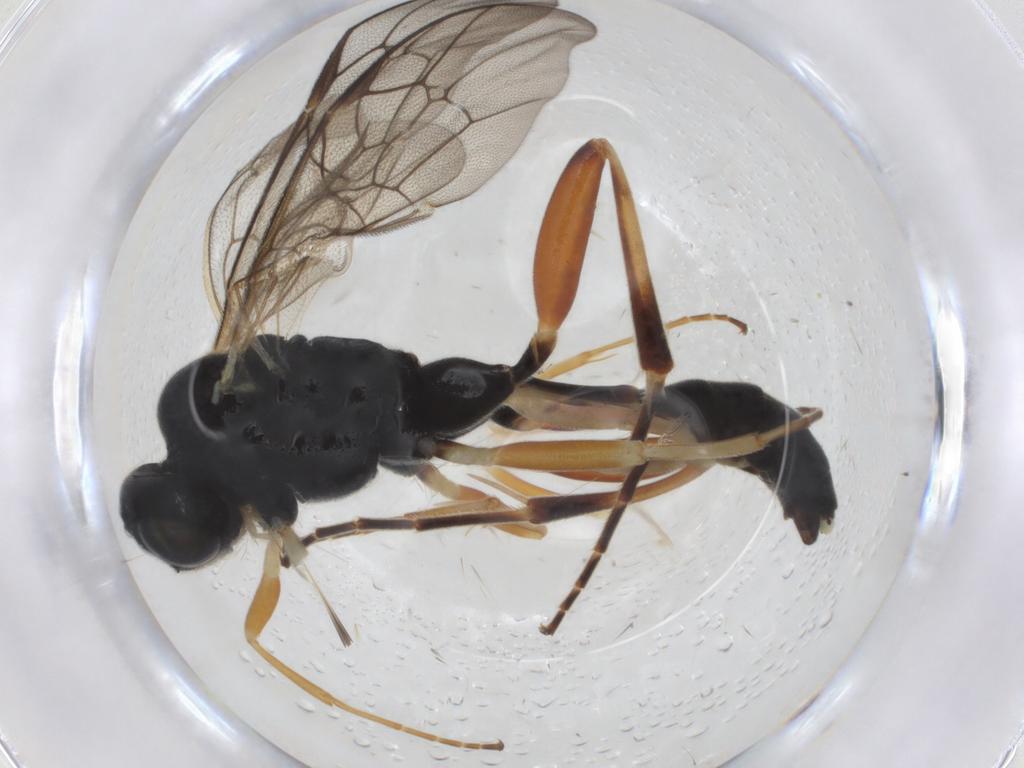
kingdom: Animalia
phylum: Arthropoda
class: Insecta
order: Hymenoptera
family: Ichneumonidae
